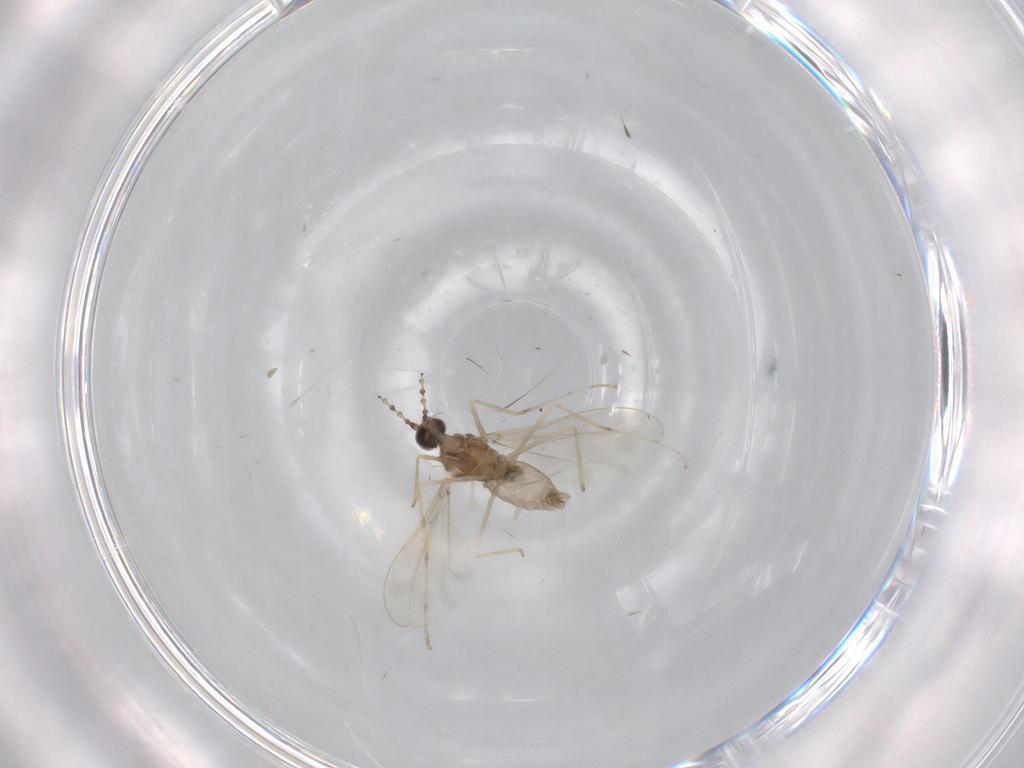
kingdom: Animalia
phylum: Arthropoda
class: Insecta
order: Diptera
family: Cecidomyiidae
